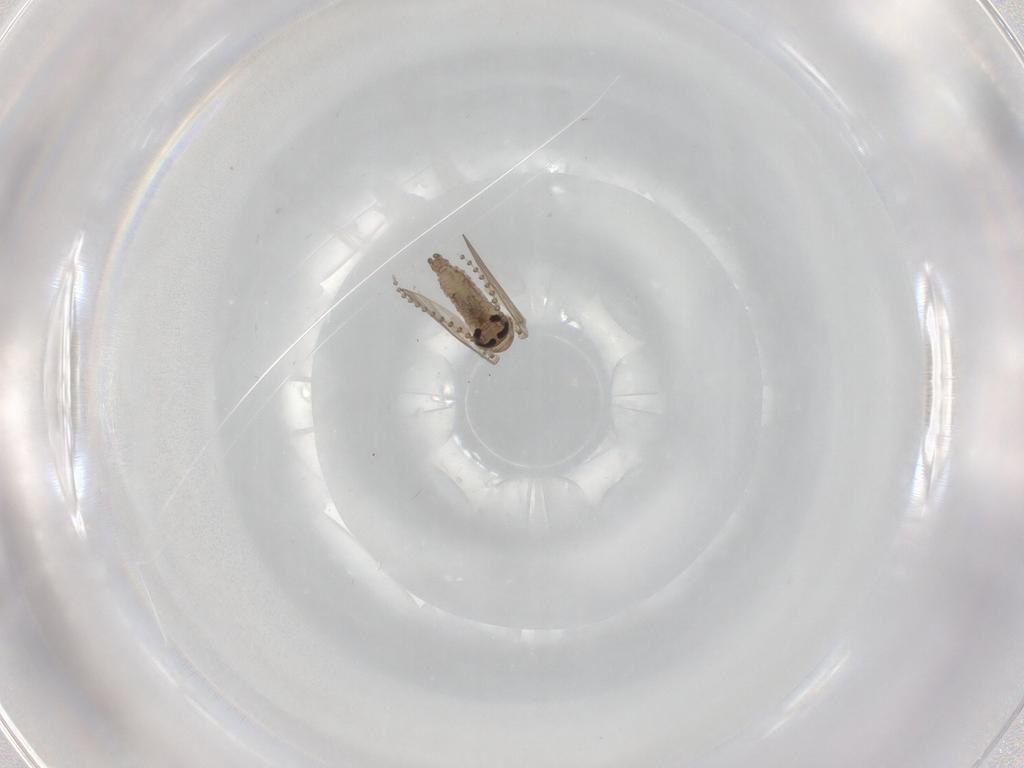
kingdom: Animalia
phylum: Arthropoda
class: Insecta
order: Diptera
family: Psychodidae
